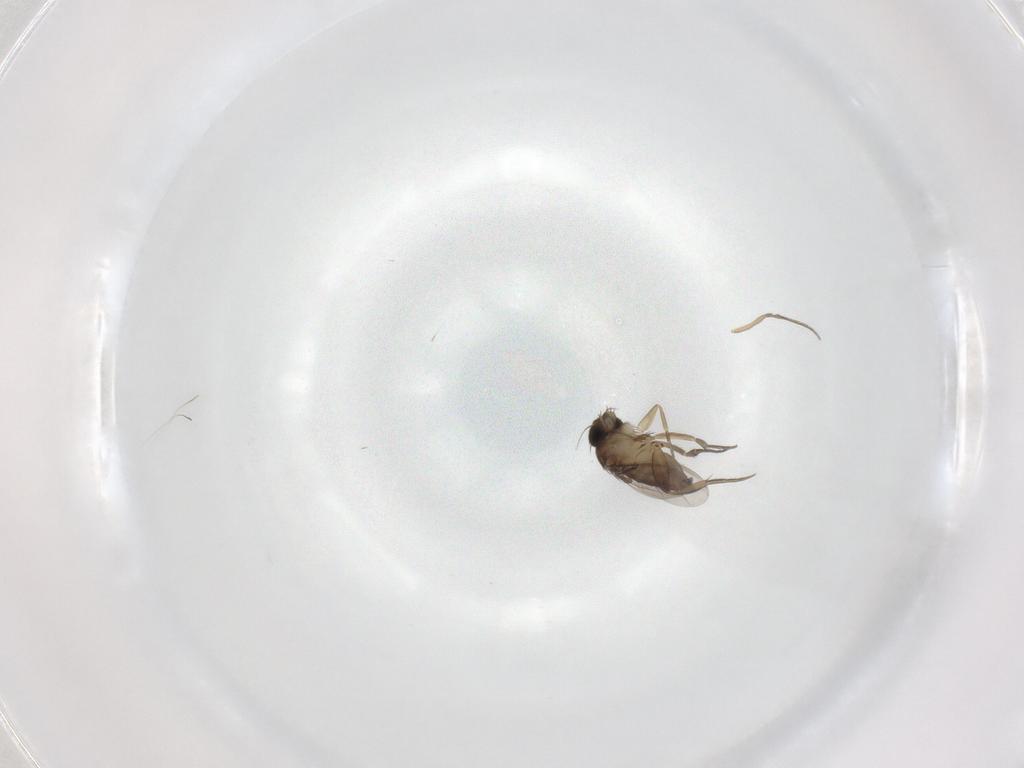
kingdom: Animalia
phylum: Arthropoda
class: Insecta
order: Diptera
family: Phoridae
